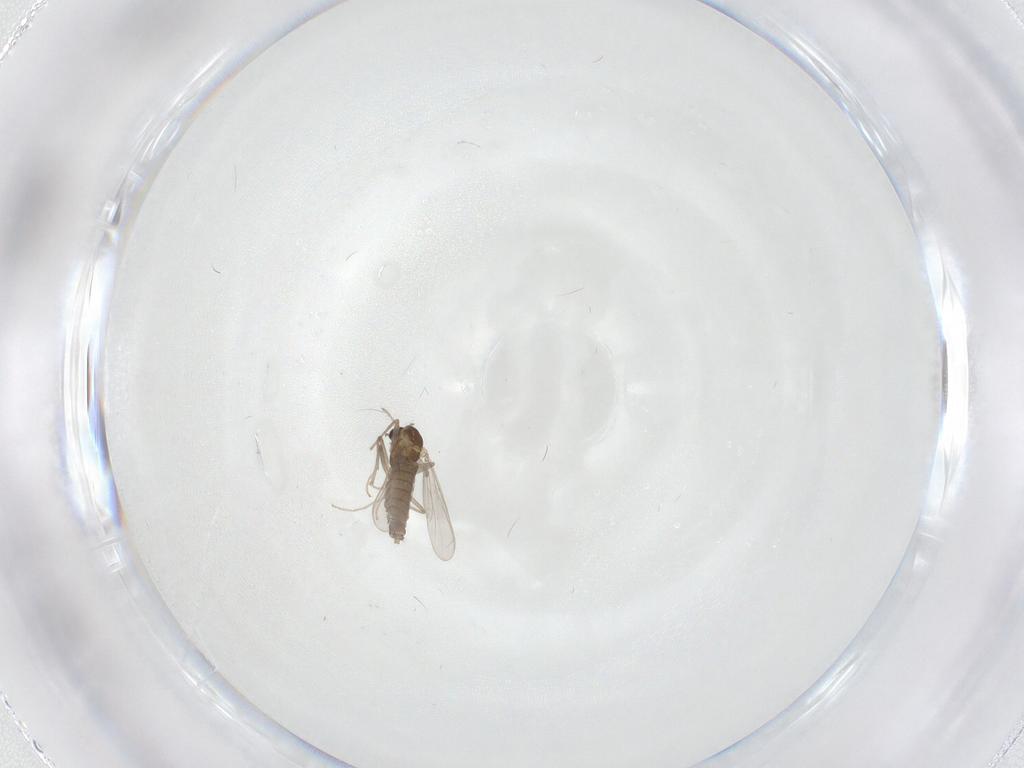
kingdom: Animalia
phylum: Arthropoda
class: Insecta
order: Diptera
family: Chironomidae
